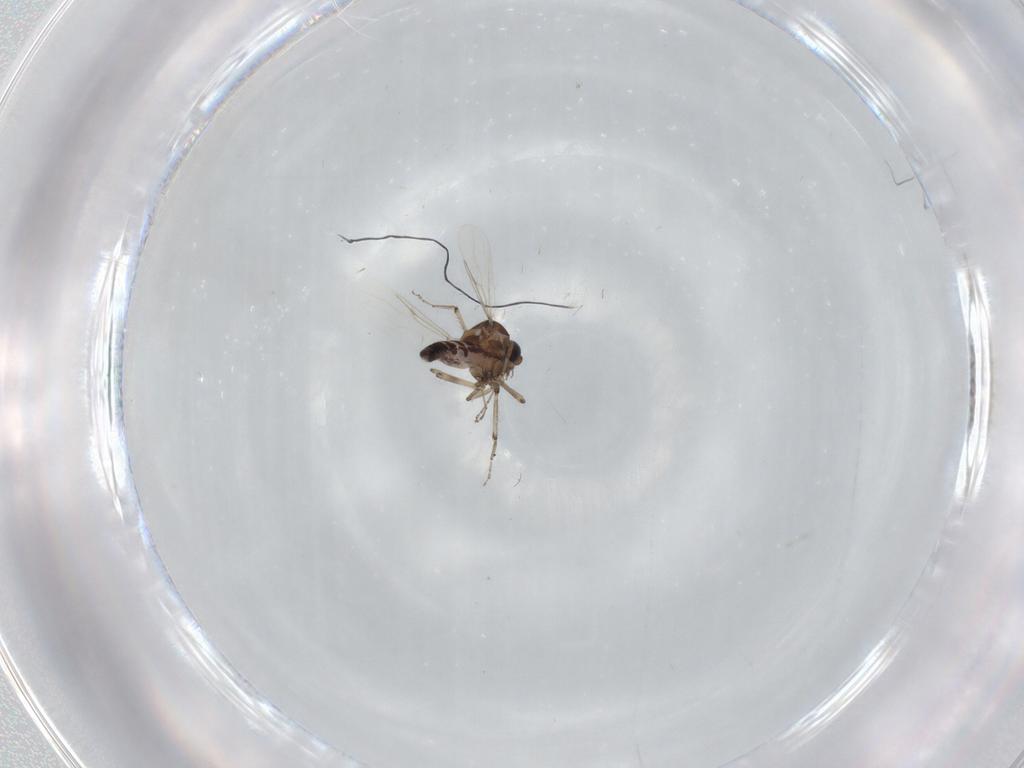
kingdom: Animalia
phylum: Arthropoda
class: Insecta
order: Diptera
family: Ceratopogonidae
